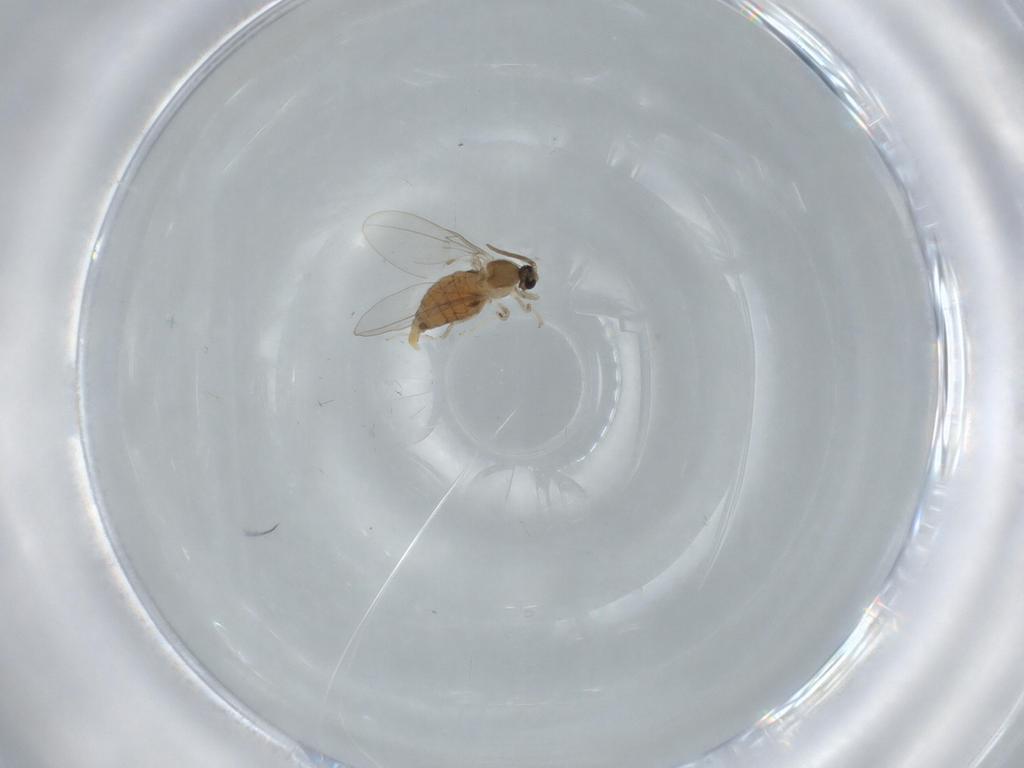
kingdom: Animalia
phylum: Arthropoda
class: Insecta
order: Diptera
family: Cecidomyiidae
